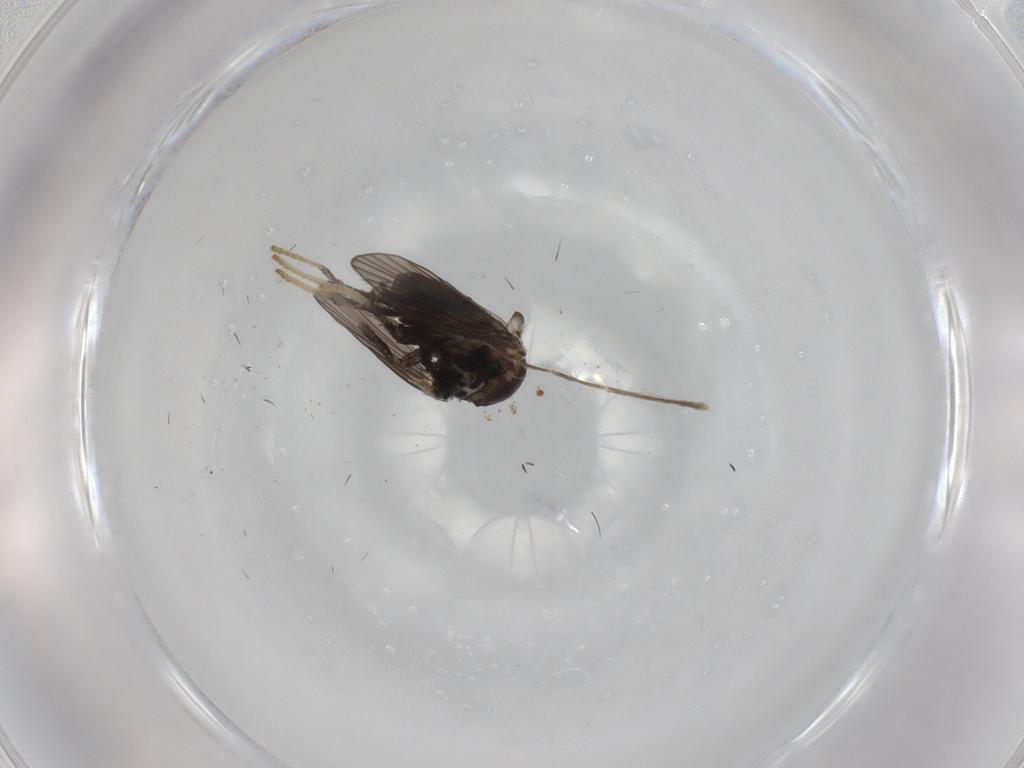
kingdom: Animalia
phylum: Arthropoda
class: Insecta
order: Diptera
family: Psychodidae
